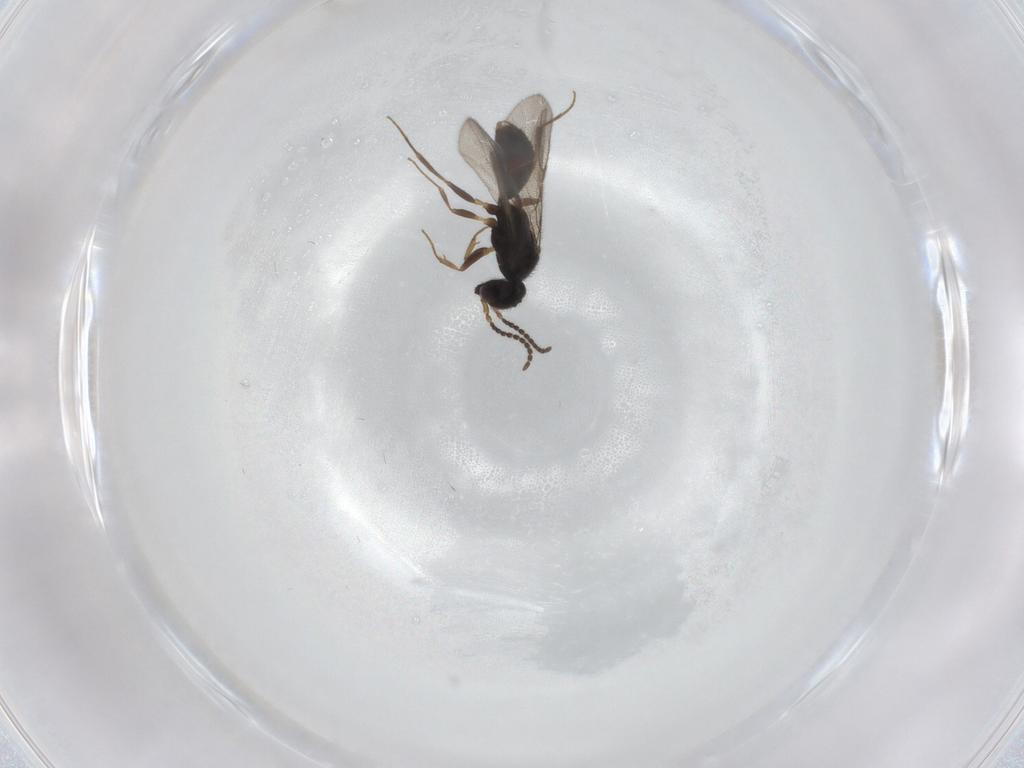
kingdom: Animalia
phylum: Arthropoda
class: Insecta
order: Hymenoptera
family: Bethylidae
